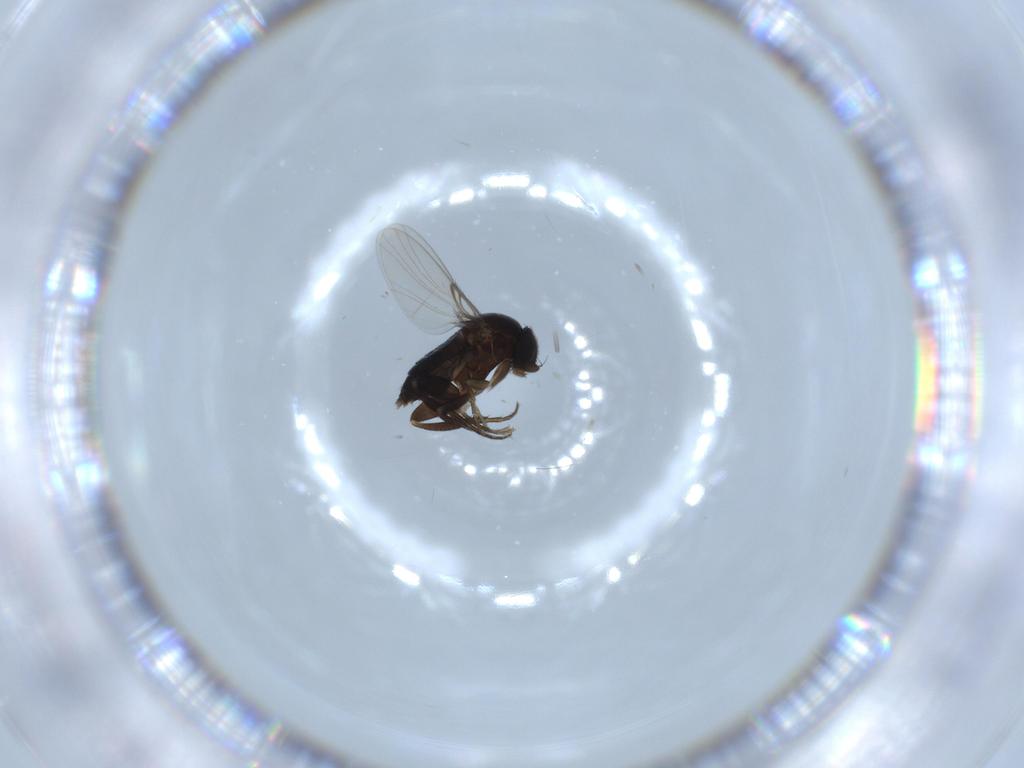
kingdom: Animalia
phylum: Arthropoda
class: Insecta
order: Diptera
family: Phoridae
